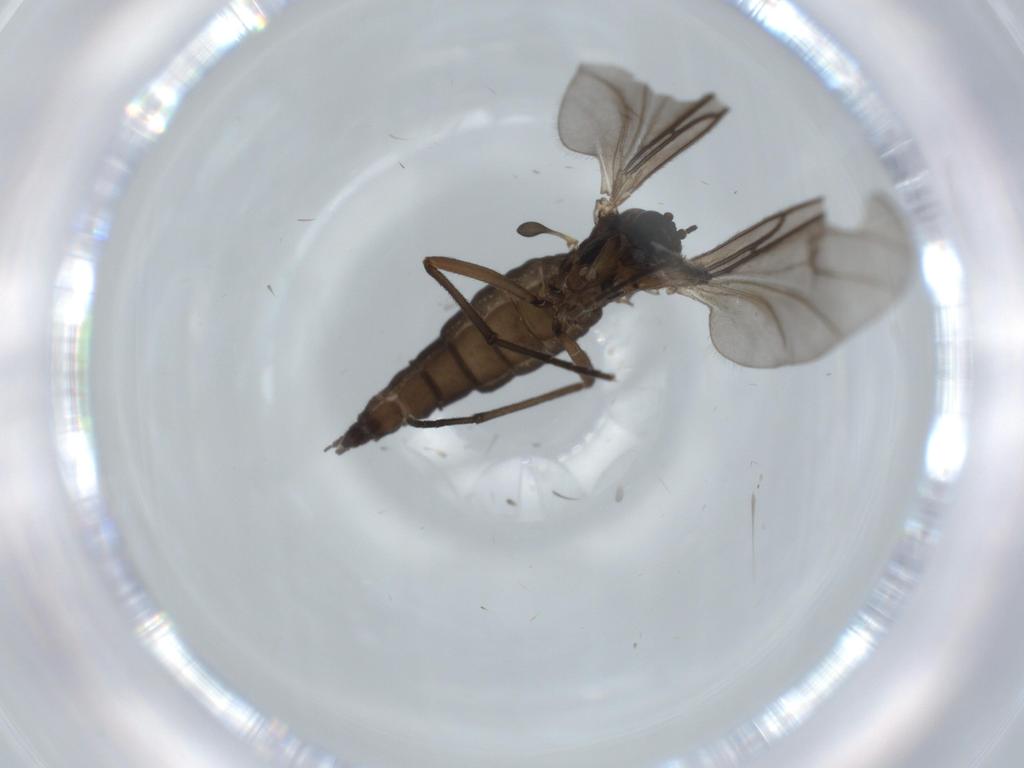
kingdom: Animalia
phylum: Arthropoda
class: Insecta
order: Diptera
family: Sciaridae
